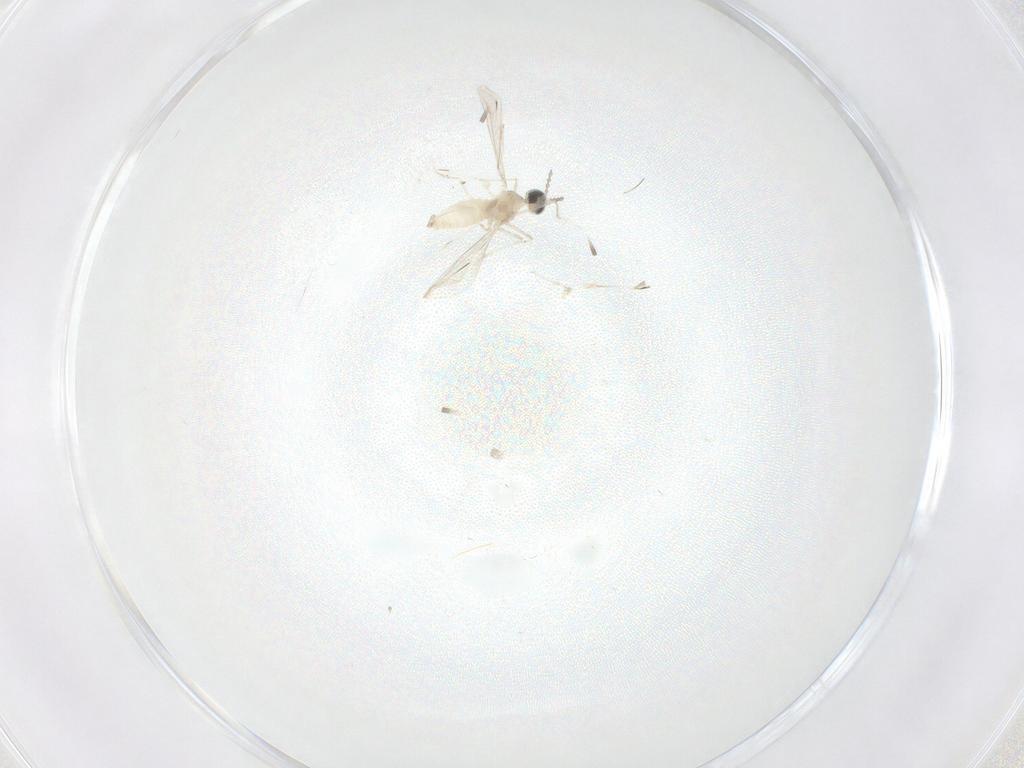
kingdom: Animalia
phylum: Arthropoda
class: Insecta
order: Diptera
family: Cecidomyiidae
